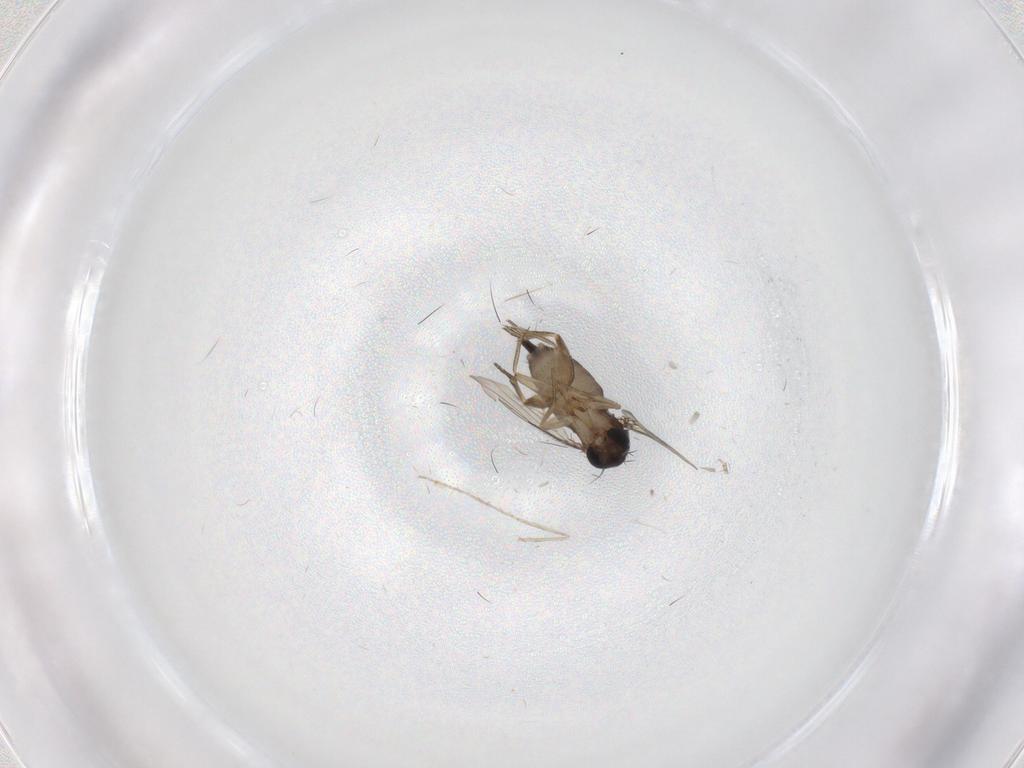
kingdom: Animalia
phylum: Arthropoda
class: Insecta
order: Diptera
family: Phoridae
